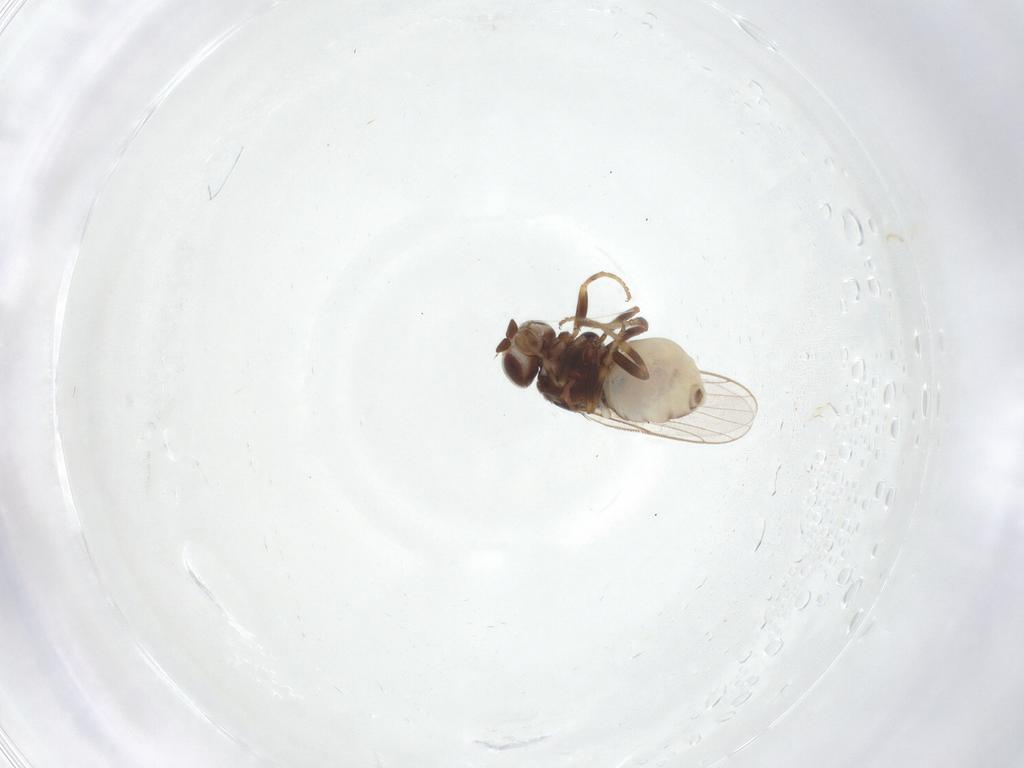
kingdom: Animalia
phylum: Arthropoda
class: Insecta
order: Diptera
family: Chloropidae
